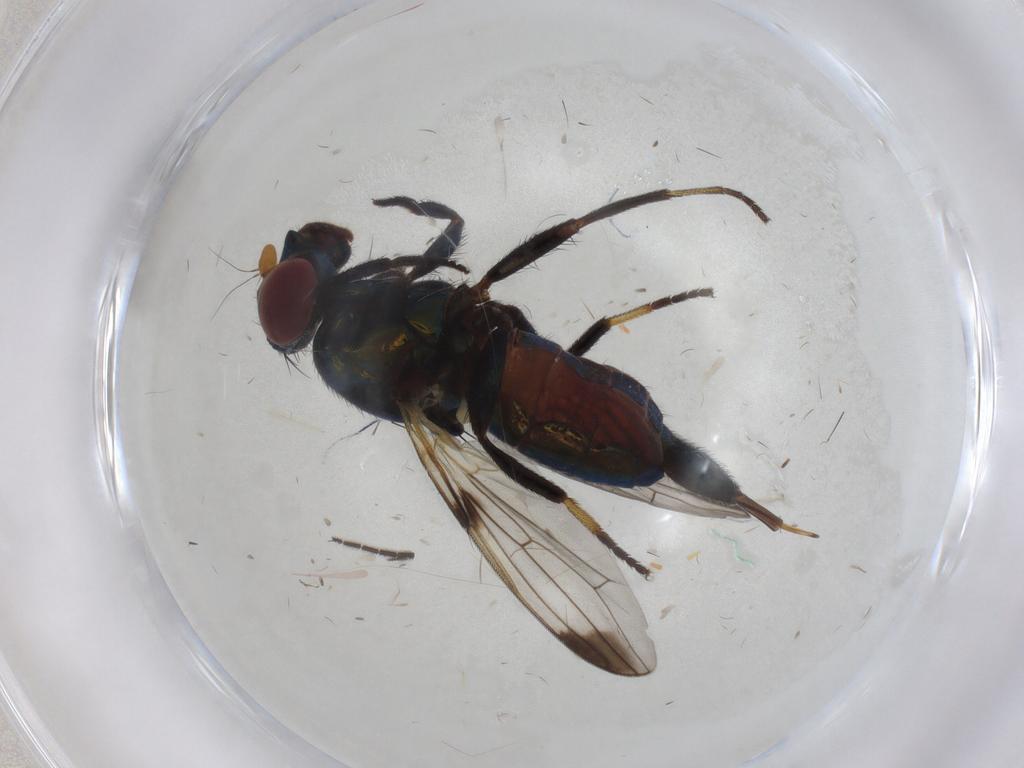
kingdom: Animalia
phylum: Arthropoda
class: Insecta
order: Diptera
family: Ulidiidae
